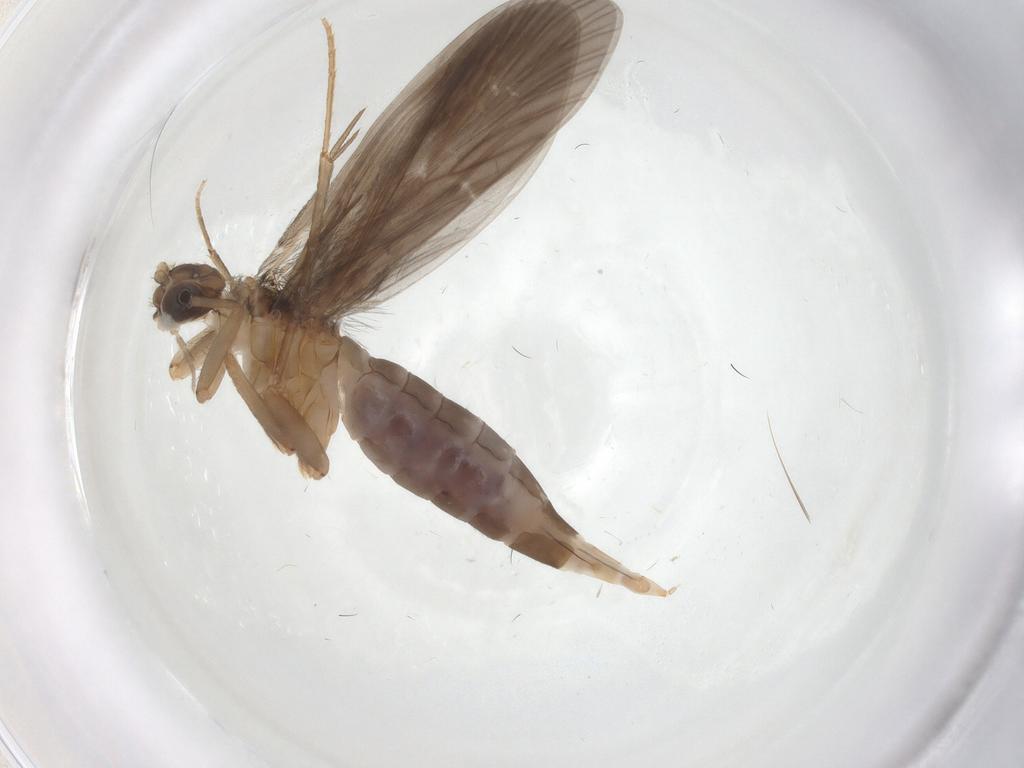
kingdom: Animalia
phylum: Arthropoda
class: Insecta
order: Trichoptera
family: Philopotamidae
